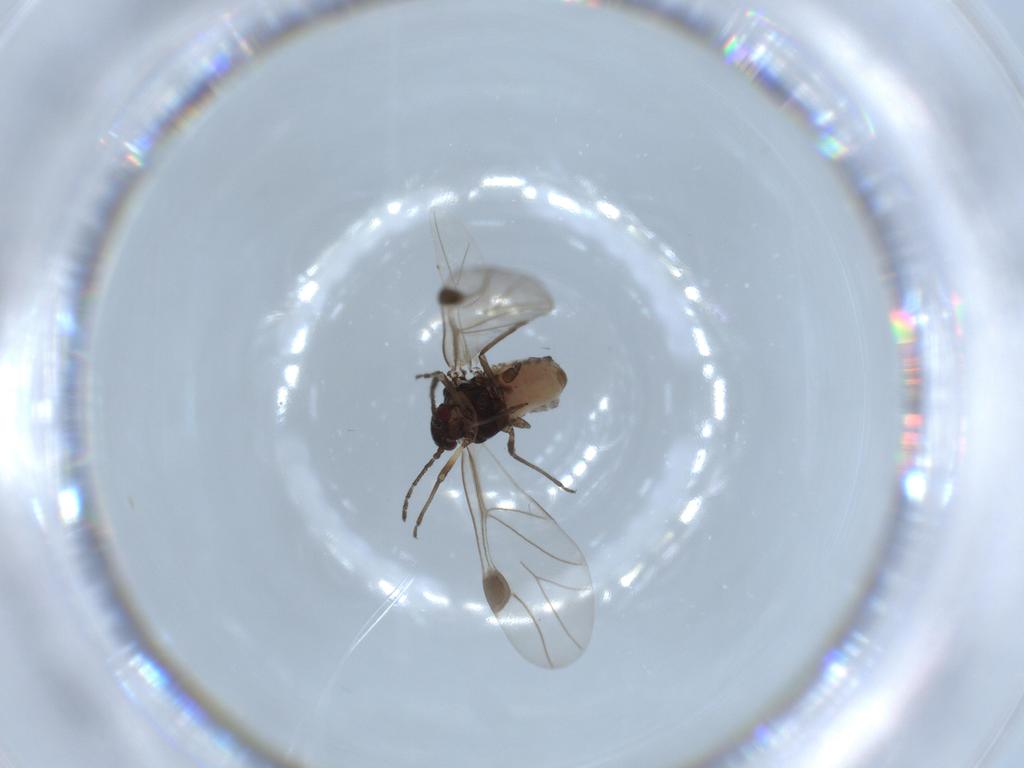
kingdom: Animalia
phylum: Arthropoda
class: Insecta
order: Hemiptera
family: Aphididae
